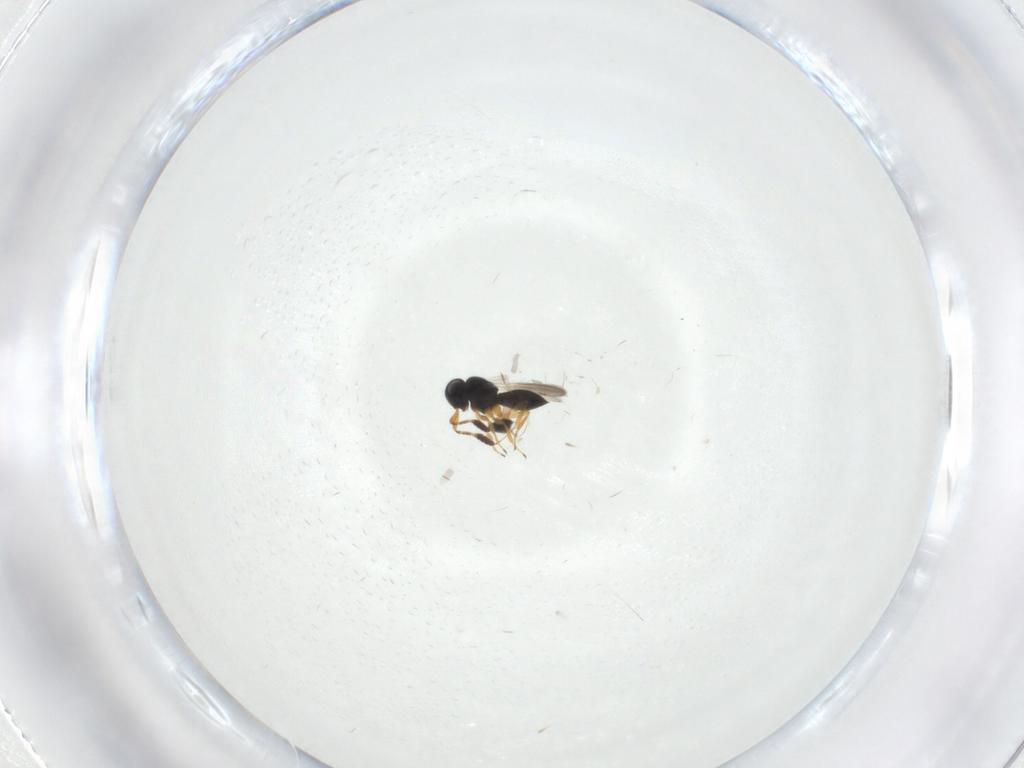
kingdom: Animalia
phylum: Arthropoda
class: Insecta
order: Hymenoptera
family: Scelionidae
